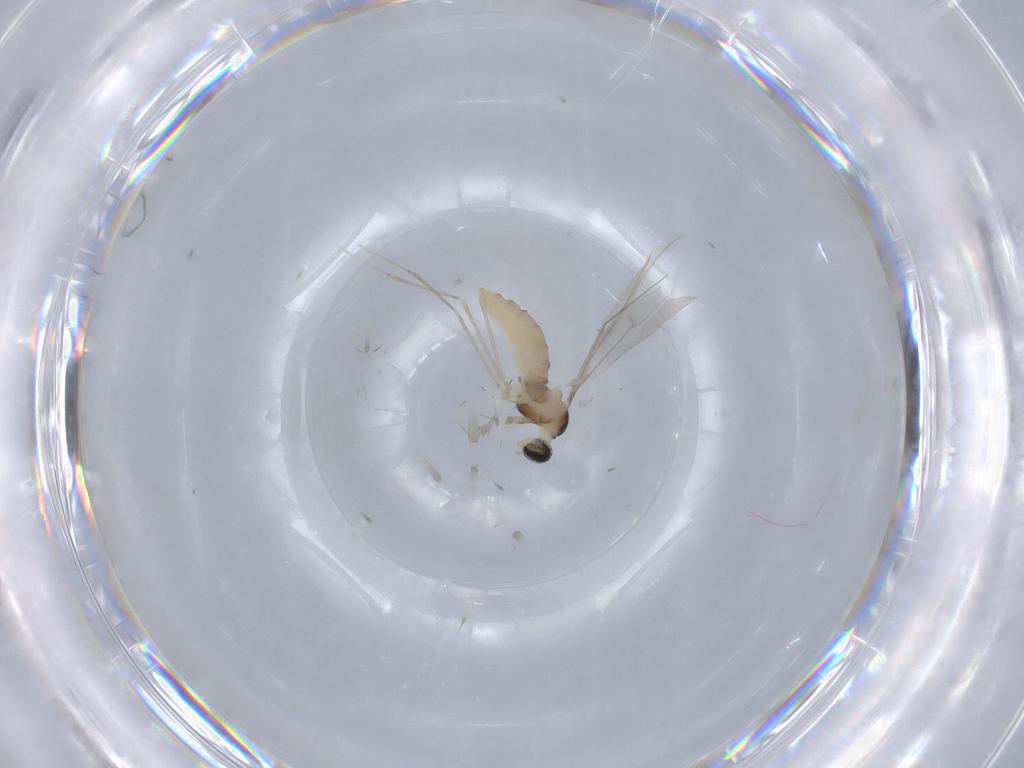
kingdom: Animalia
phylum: Arthropoda
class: Insecta
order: Diptera
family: Cecidomyiidae
